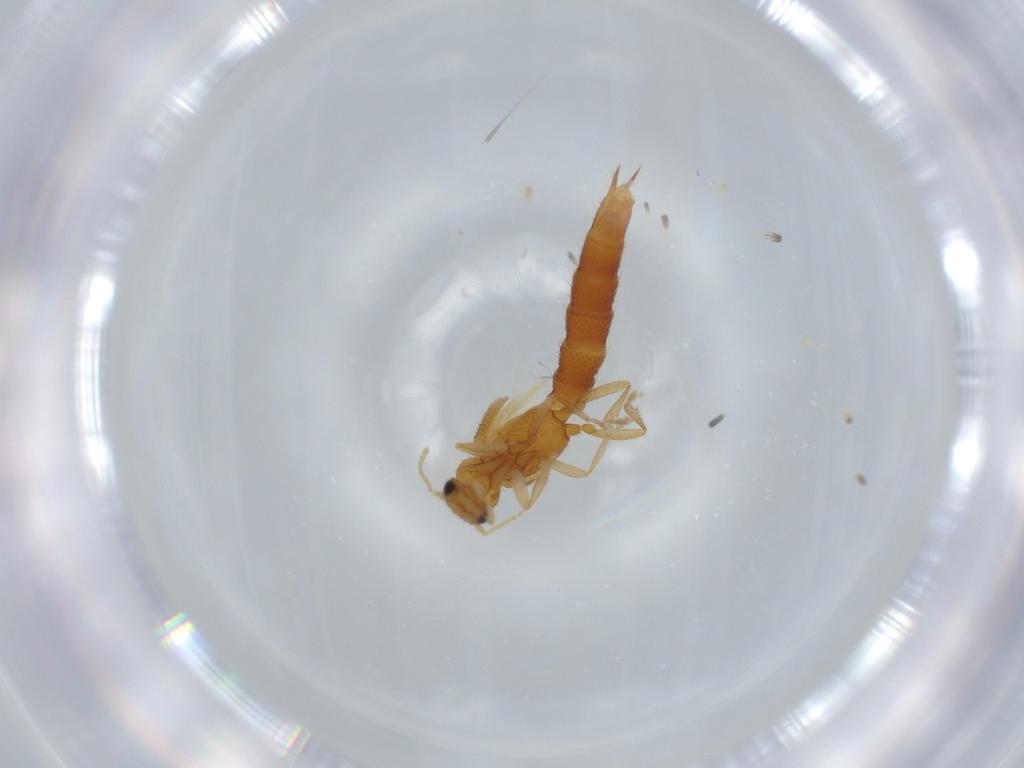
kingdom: Animalia
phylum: Arthropoda
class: Insecta
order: Coleoptera
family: Staphylinidae
